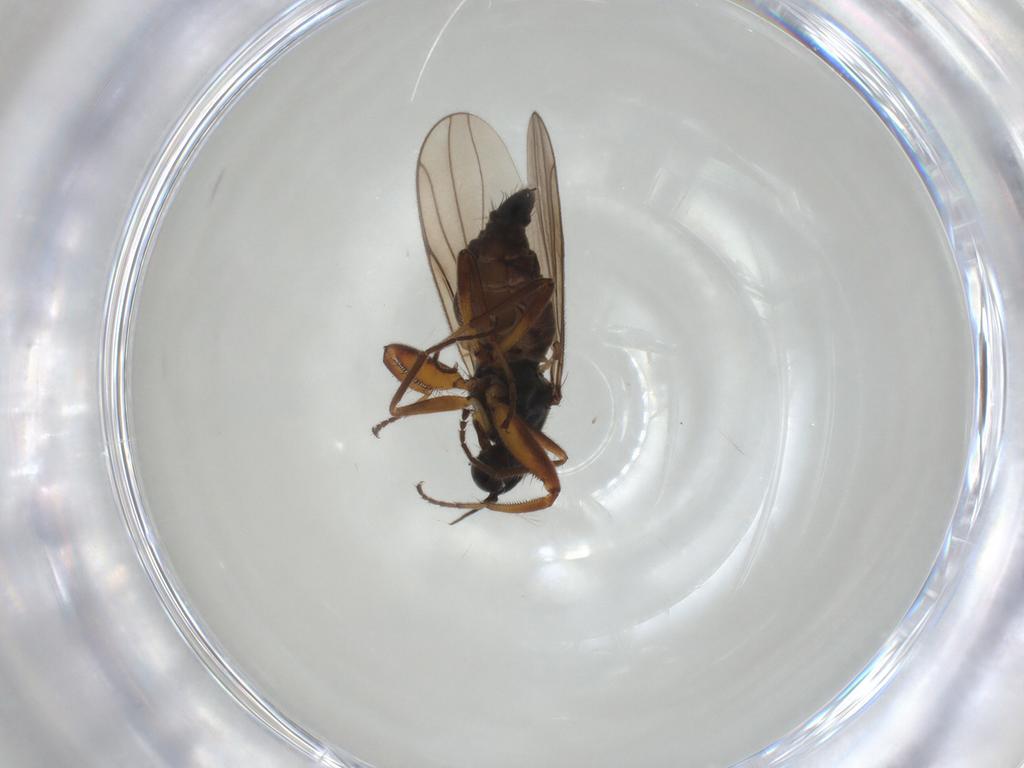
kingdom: Animalia
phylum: Arthropoda
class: Insecta
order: Diptera
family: Hybotidae
